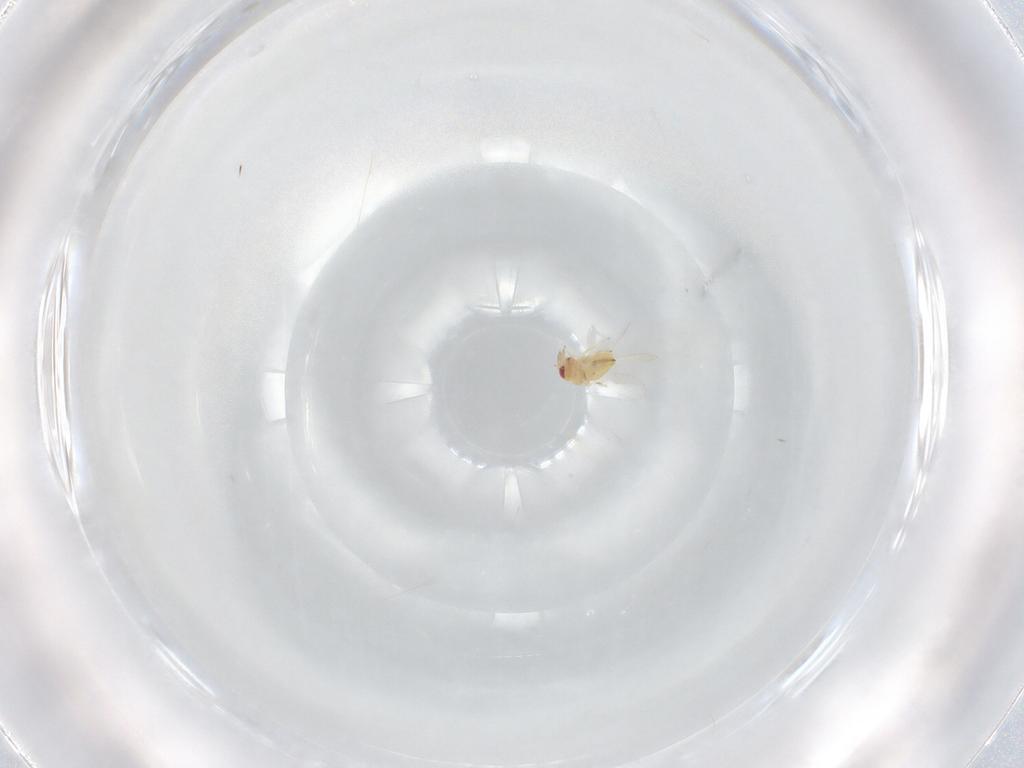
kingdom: Animalia
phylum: Arthropoda
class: Insecta
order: Hymenoptera
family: Trichogrammatidae
